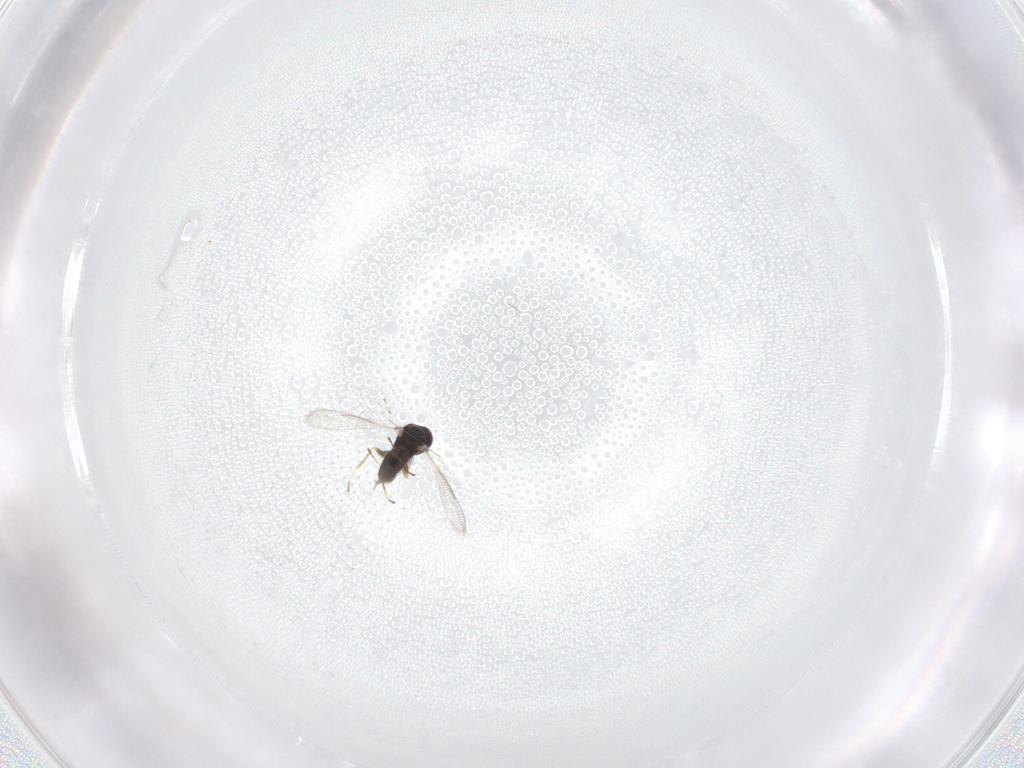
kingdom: Animalia
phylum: Arthropoda
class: Insecta
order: Hymenoptera
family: Eulophidae
